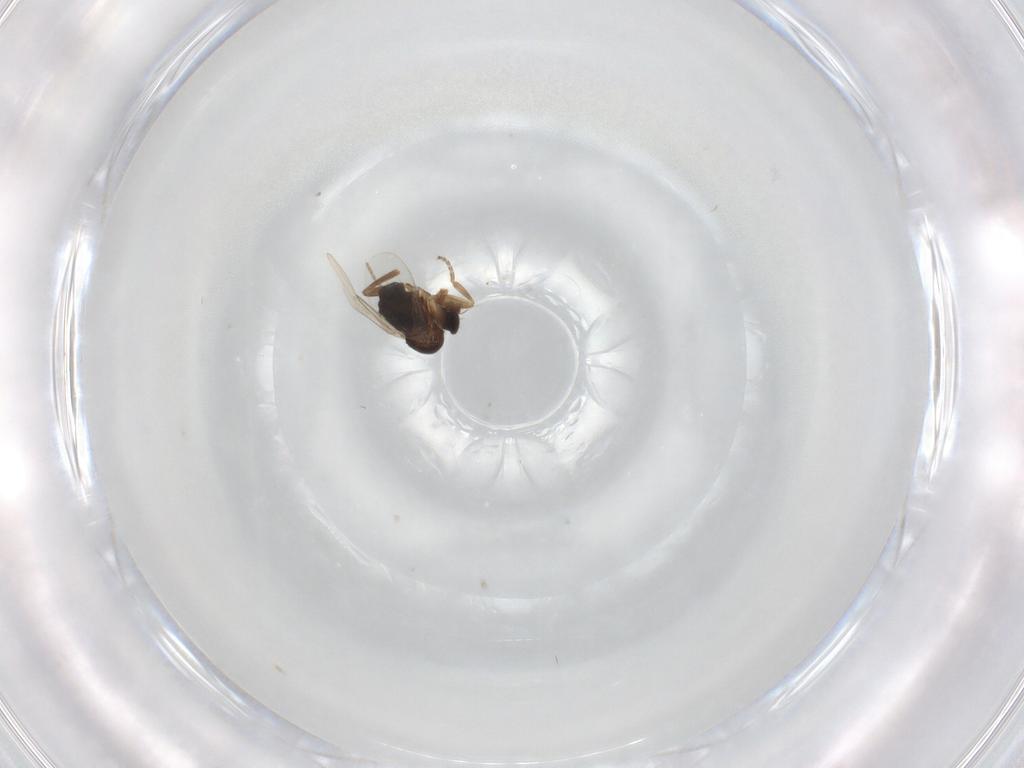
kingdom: Animalia
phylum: Arthropoda
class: Insecta
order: Diptera
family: Phoridae
